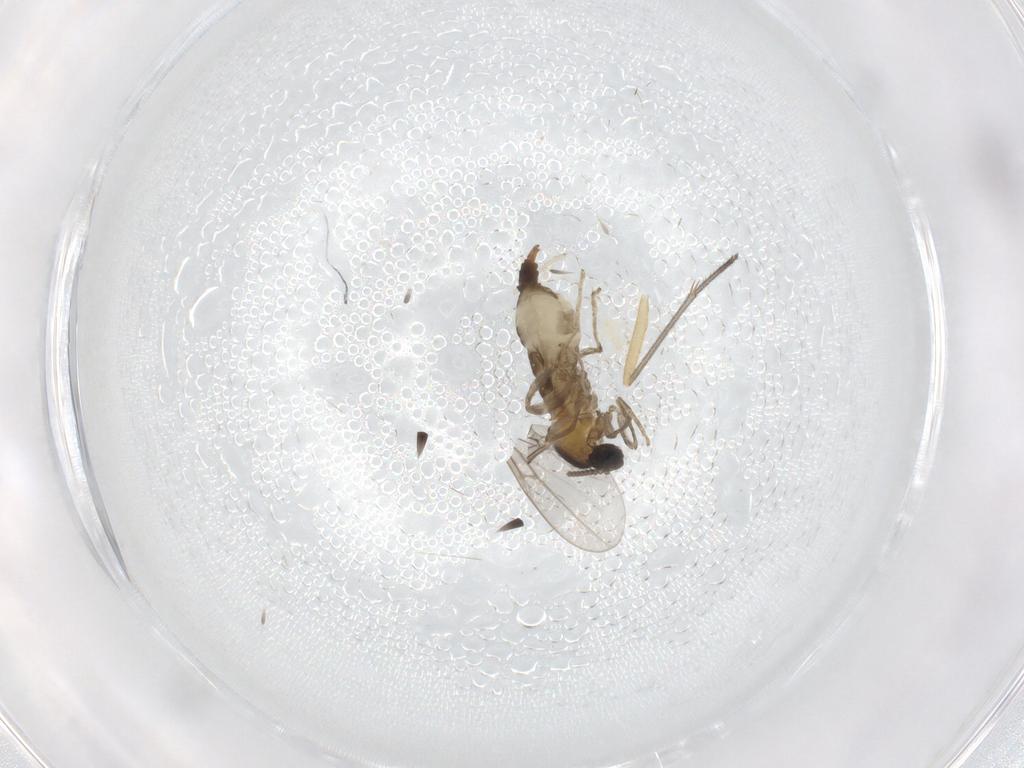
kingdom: Animalia
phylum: Arthropoda
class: Insecta
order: Diptera
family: Cecidomyiidae
